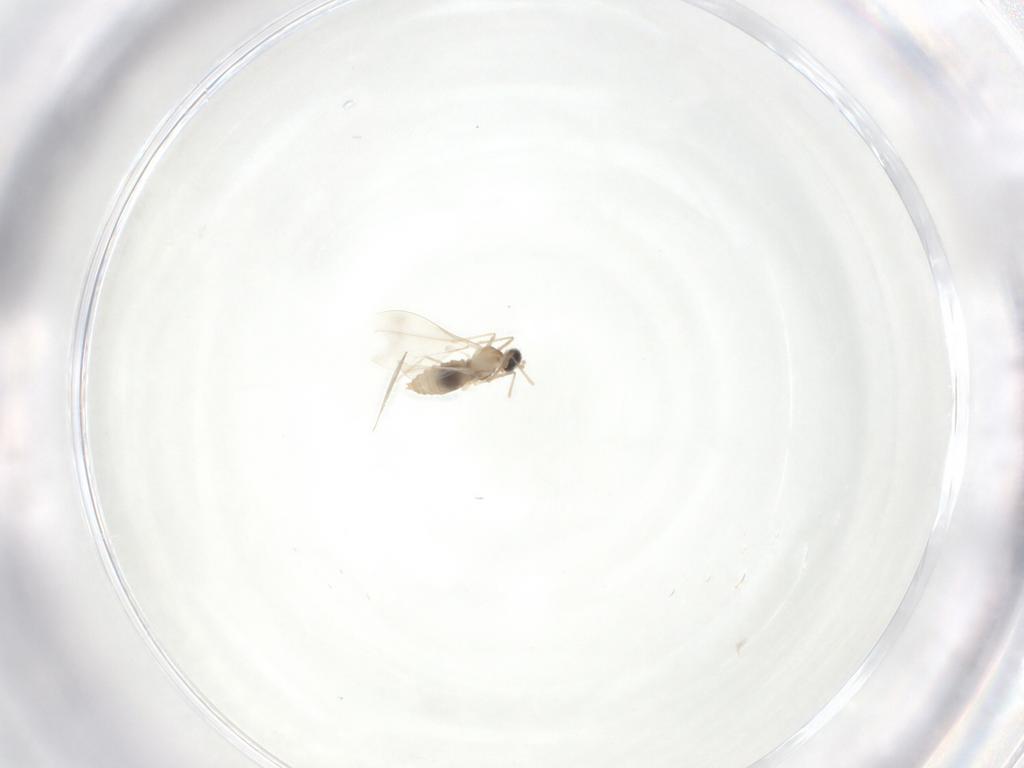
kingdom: Animalia
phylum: Arthropoda
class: Insecta
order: Diptera
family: Cecidomyiidae
